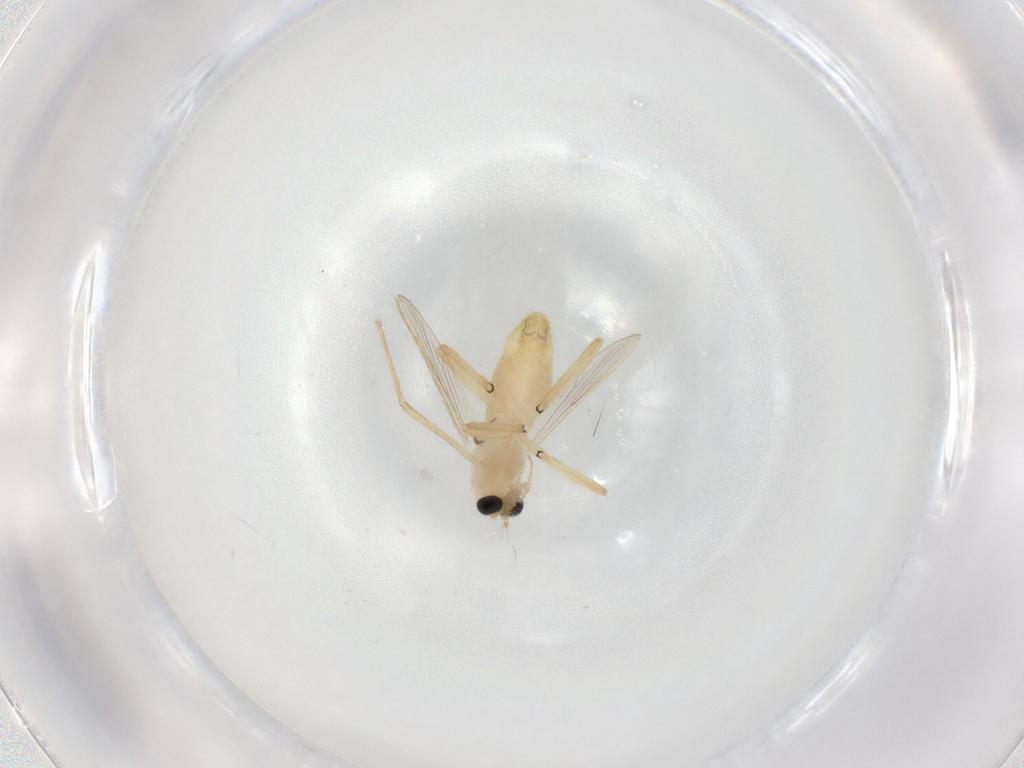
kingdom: Animalia
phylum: Arthropoda
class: Insecta
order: Diptera
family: Chironomidae
